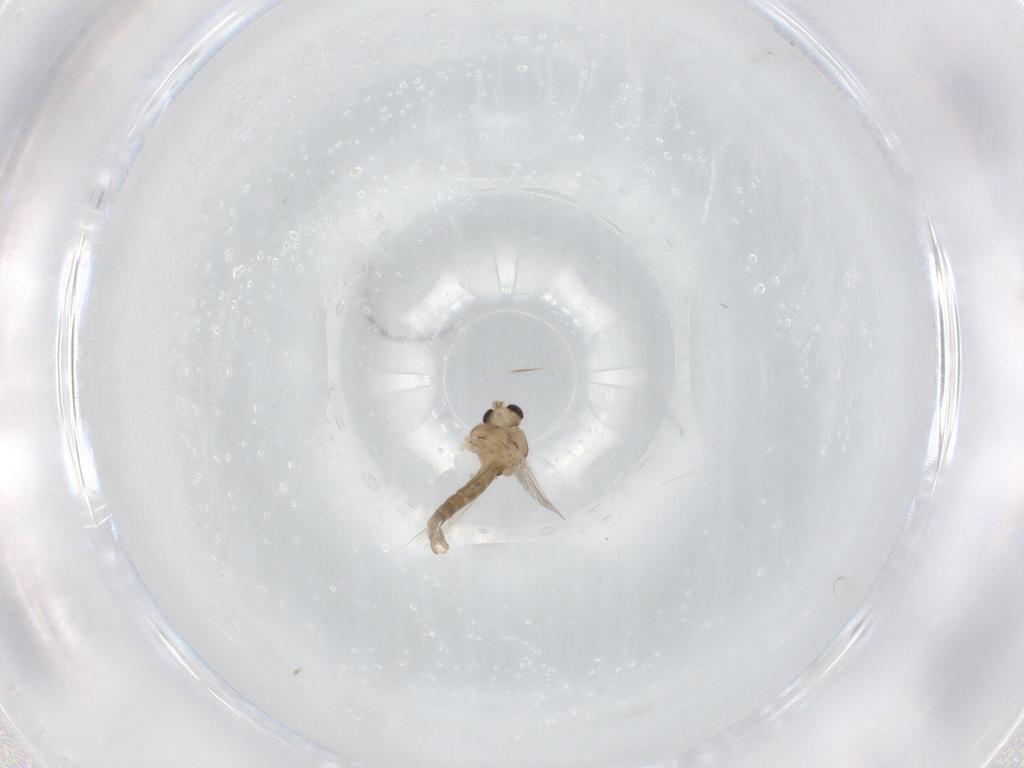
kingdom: Animalia
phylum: Arthropoda
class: Insecta
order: Diptera
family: Chironomidae
